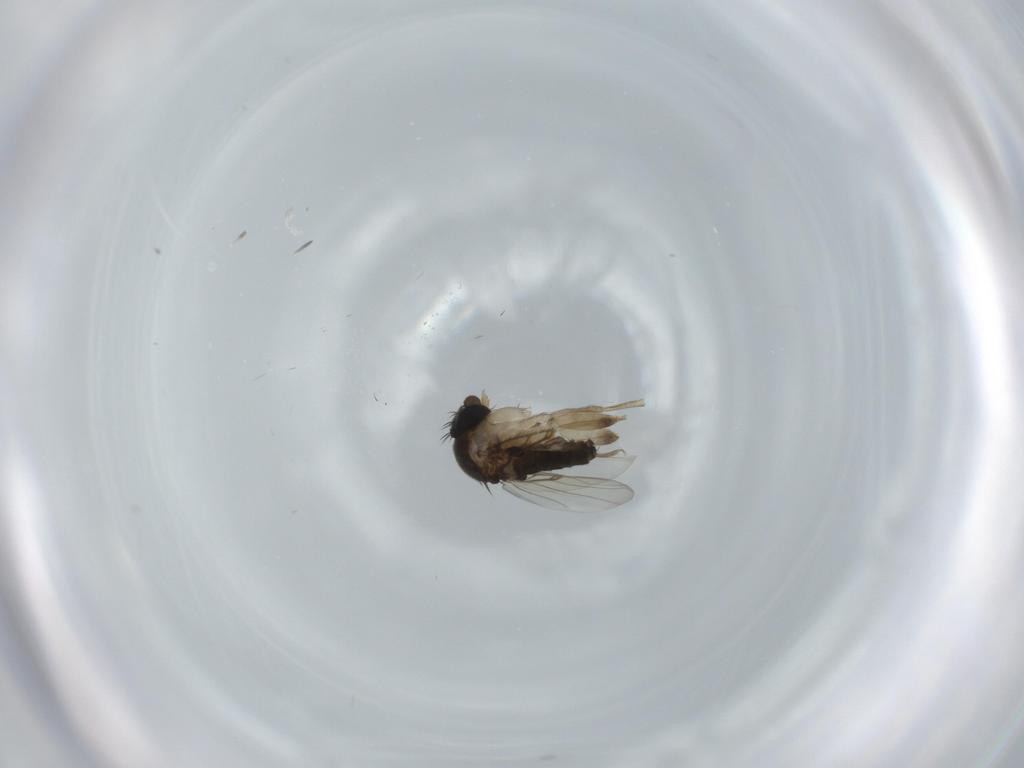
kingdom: Animalia
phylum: Arthropoda
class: Insecta
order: Diptera
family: Phoridae
